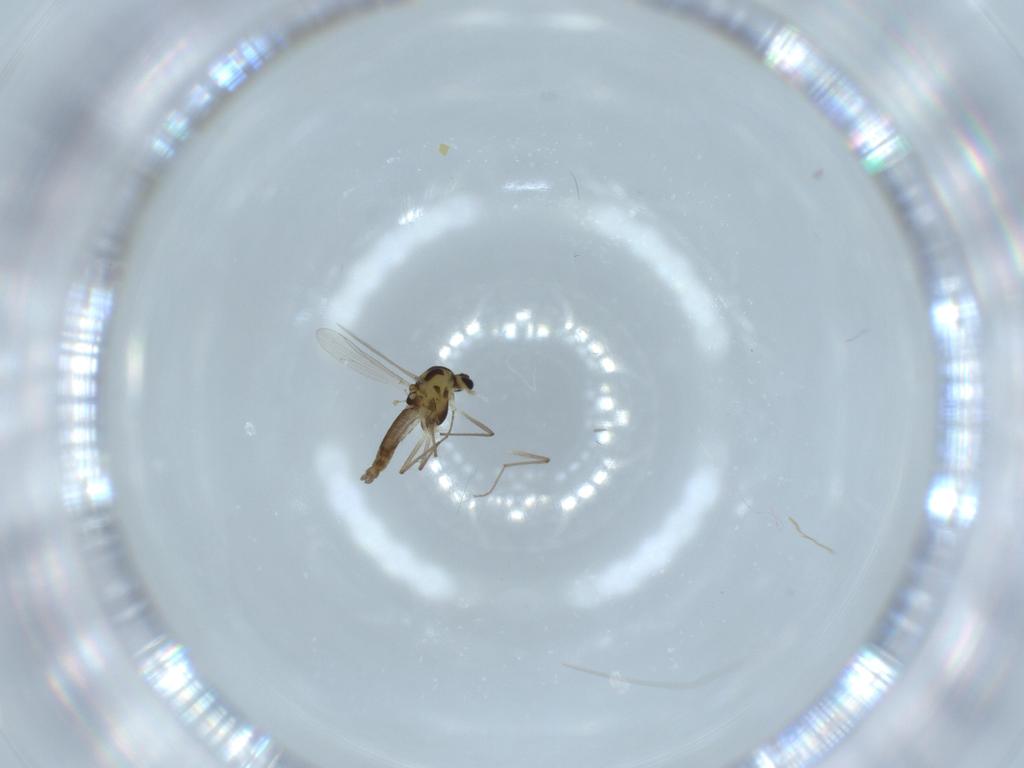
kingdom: Animalia
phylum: Arthropoda
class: Insecta
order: Diptera
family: Chironomidae
